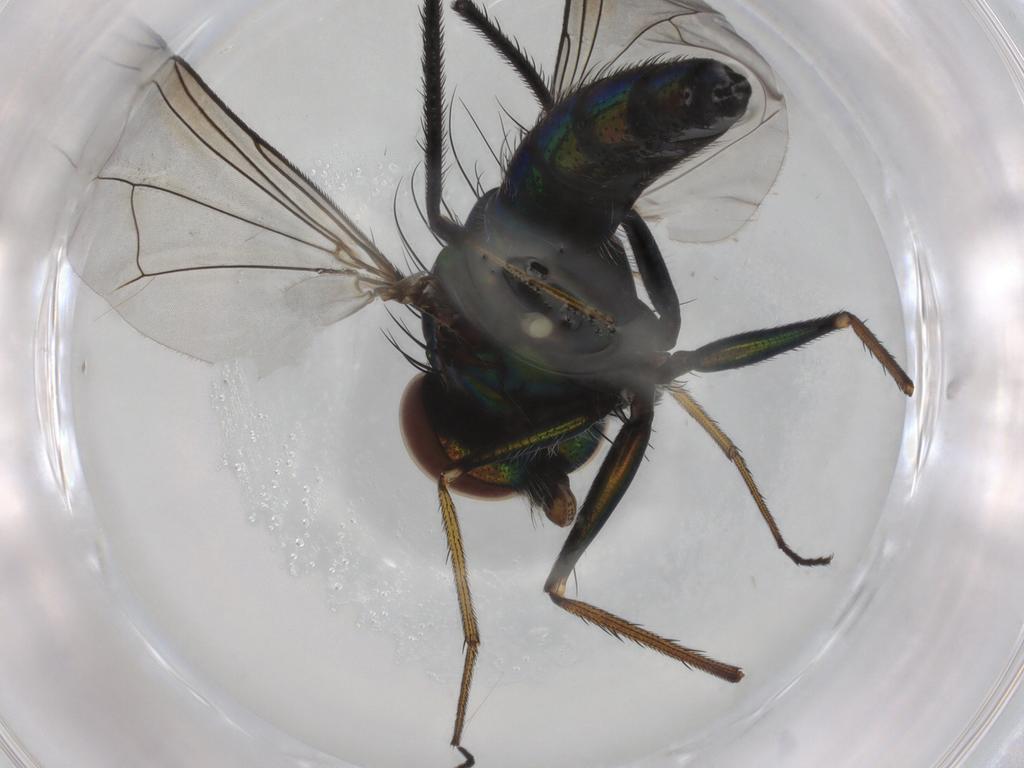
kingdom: Animalia
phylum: Arthropoda
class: Insecta
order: Diptera
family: Dolichopodidae
